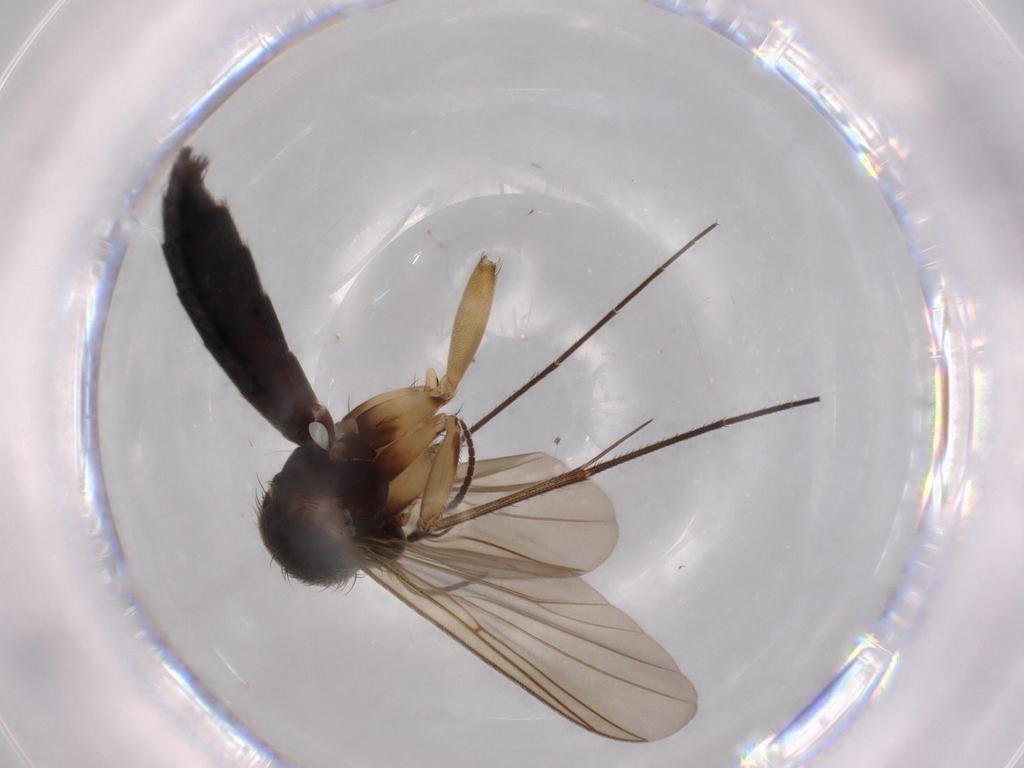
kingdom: Animalia
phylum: Arthropoda
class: Insecta
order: Diptera
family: Mycetophilidae
